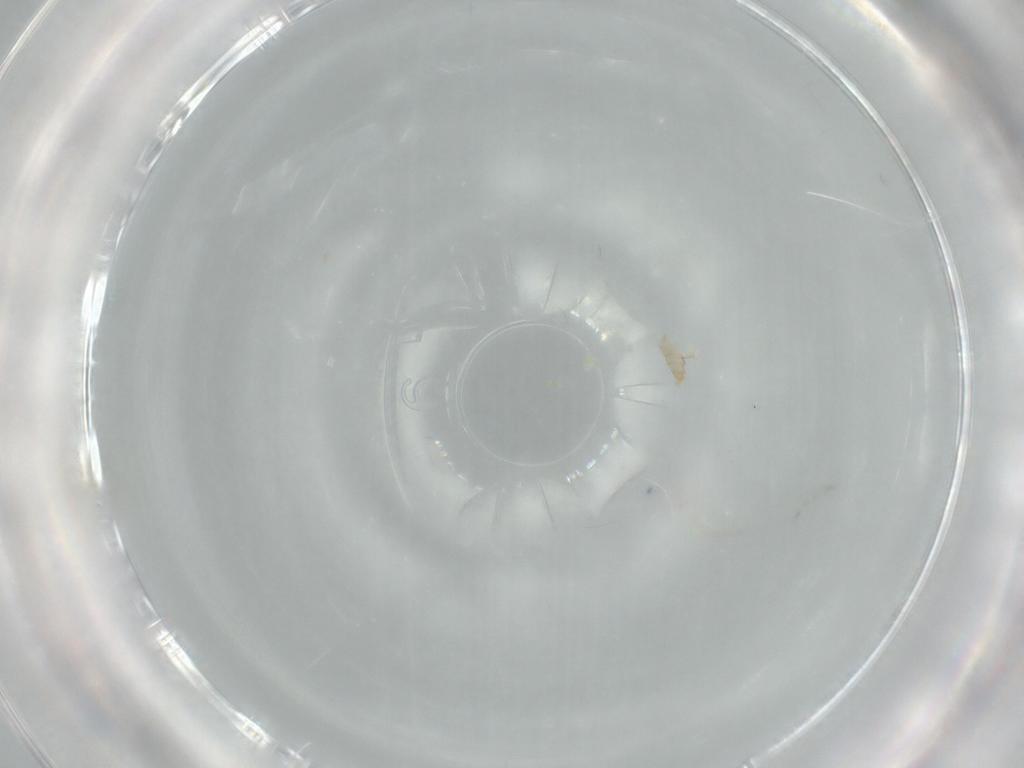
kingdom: Animalia
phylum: Arthropoda
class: Insecta
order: Diptera
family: Cecidomyiidae
